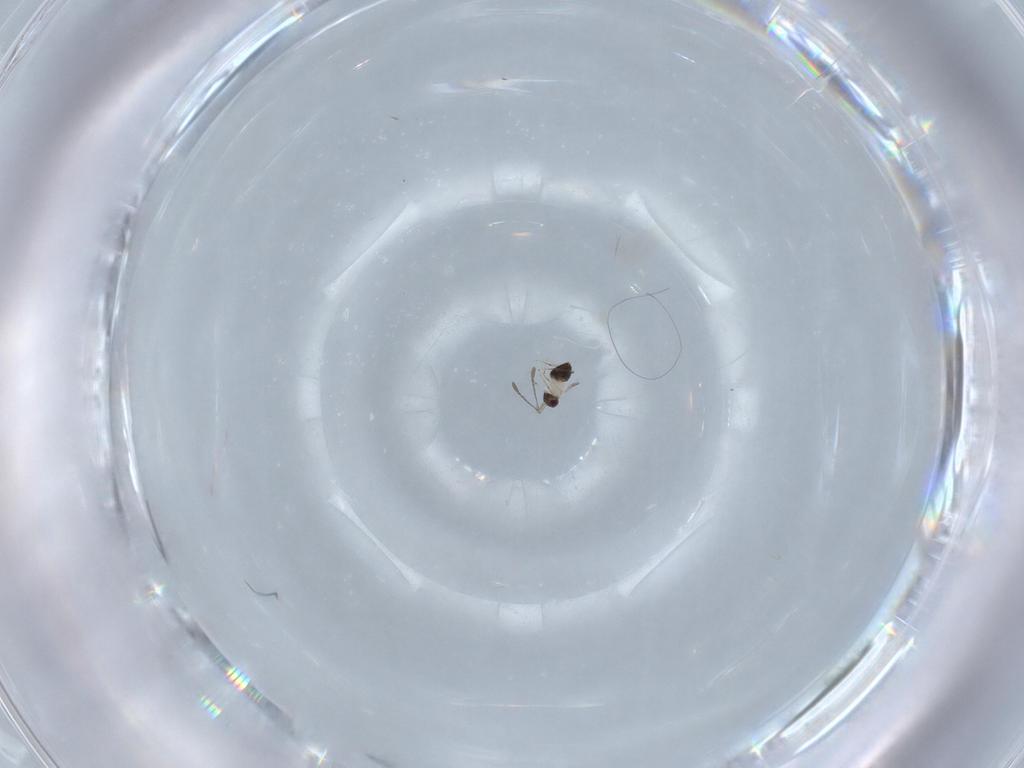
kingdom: Animalia
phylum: Arthropoda
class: Insecta
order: Hymenoptera
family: Mymaridae
